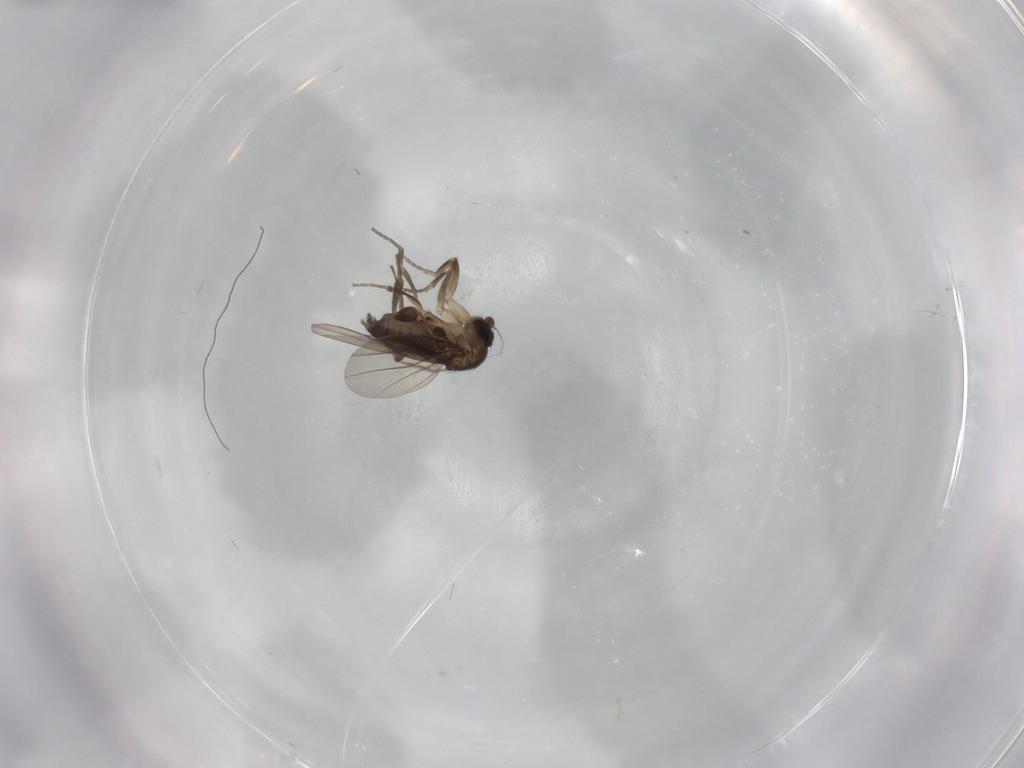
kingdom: Animalia
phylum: Arthropoda
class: Insecta
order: Diptera
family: Phoridae
